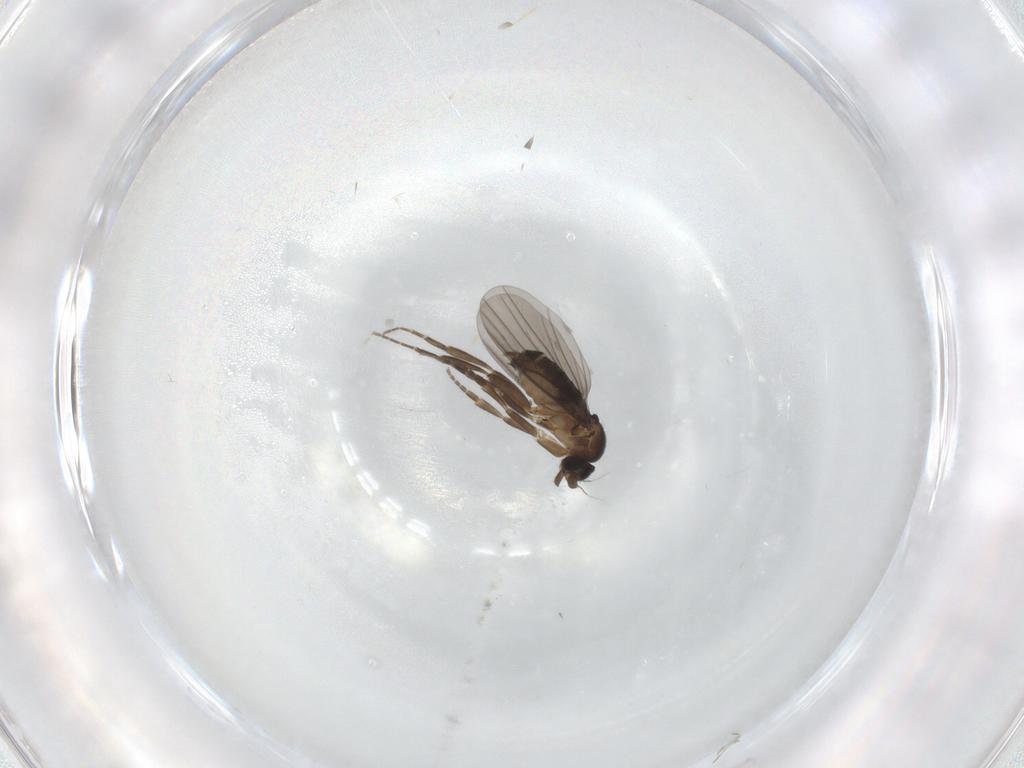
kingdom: Animalia
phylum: Arthropoda
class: Insecta
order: Diptera
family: Phoridae
